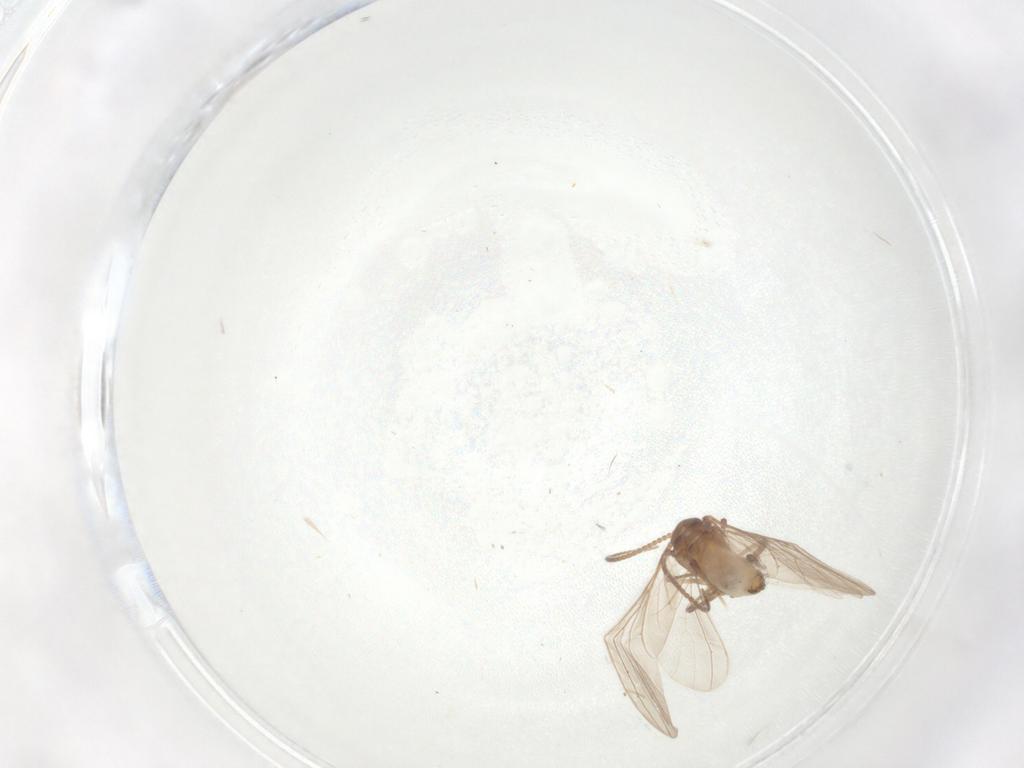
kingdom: Animalia
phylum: Arthropoda
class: Insecta
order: Neuroptera
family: Coniopterygidae
